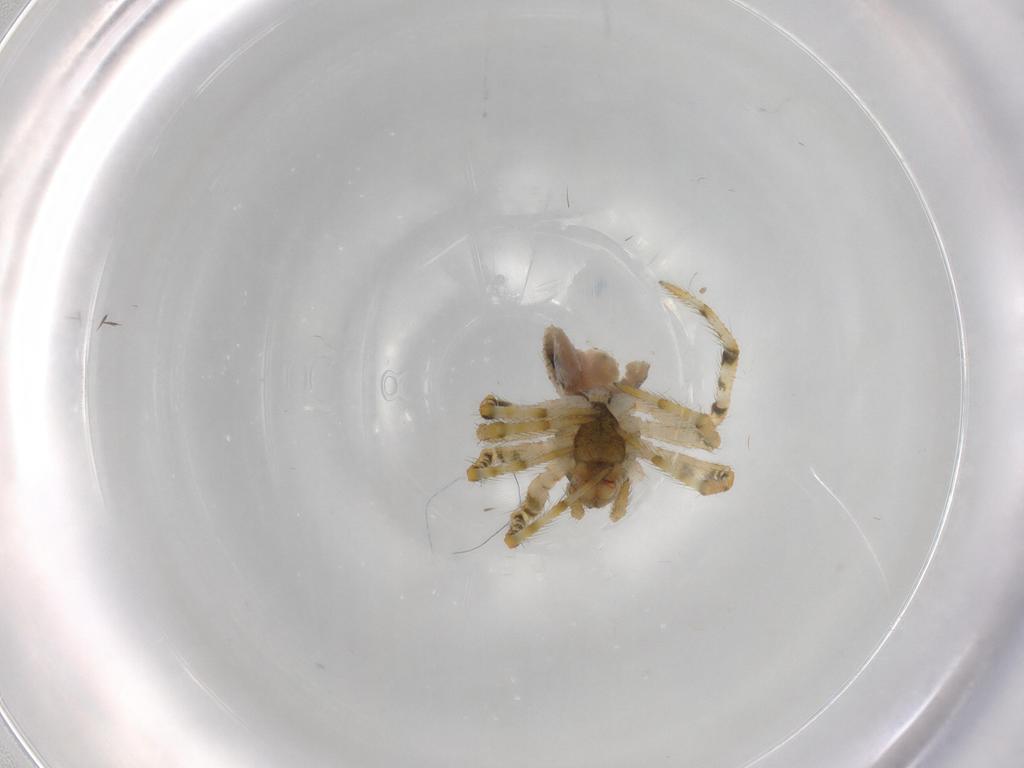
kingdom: Animalia
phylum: Arthropoda
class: Arachnida
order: Araneae
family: Theridiidae
